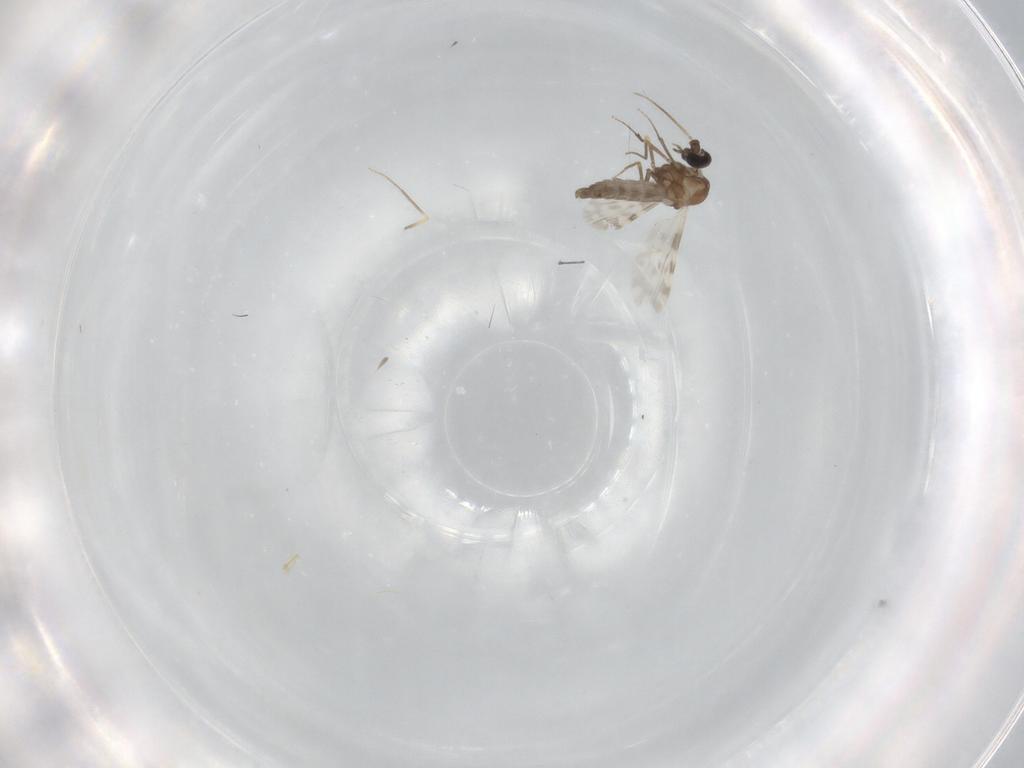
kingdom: Animalia
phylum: Arthropoda
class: Insecta
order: Diptera
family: Ceratopogonidae
